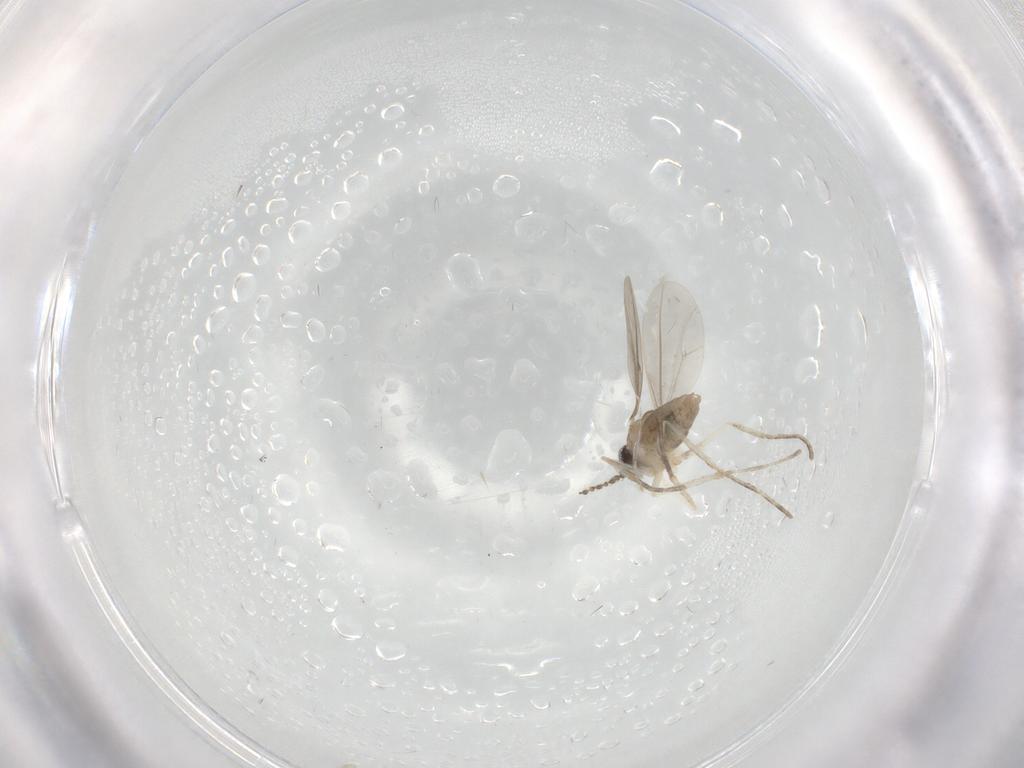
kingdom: Animalia
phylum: Arthropoda
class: Insecta
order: Diptera
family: Cecidomyiidae
